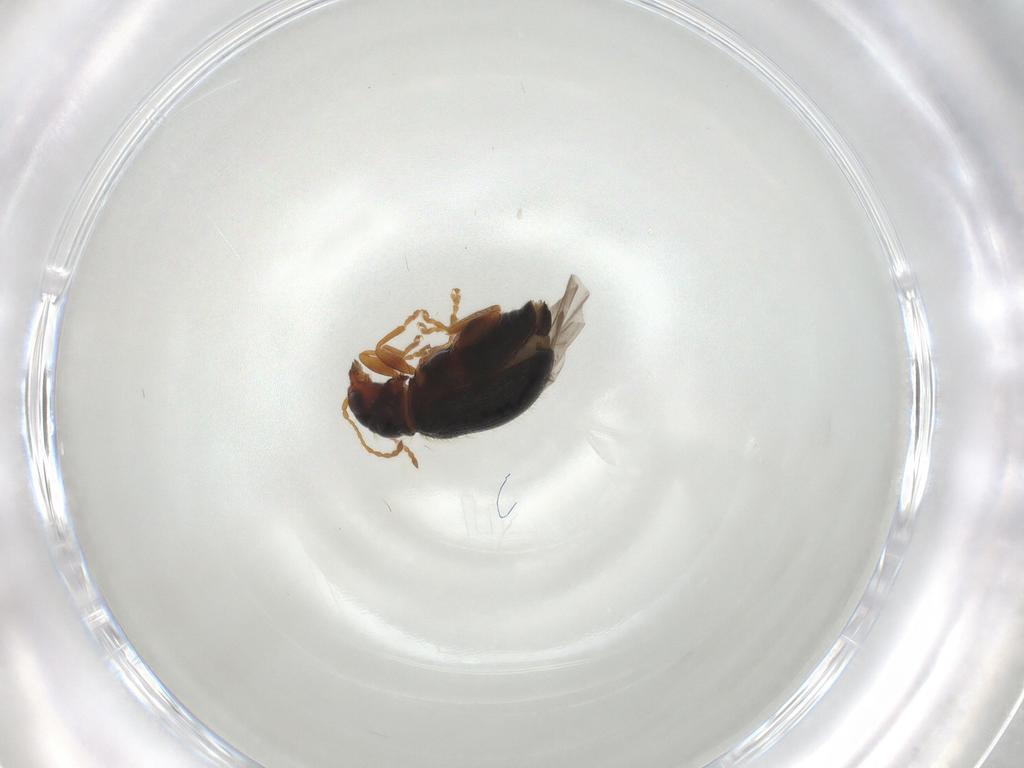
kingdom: Animalia
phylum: Arthropoda
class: Insecta
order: Coleoptera
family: Chrysomelidae
